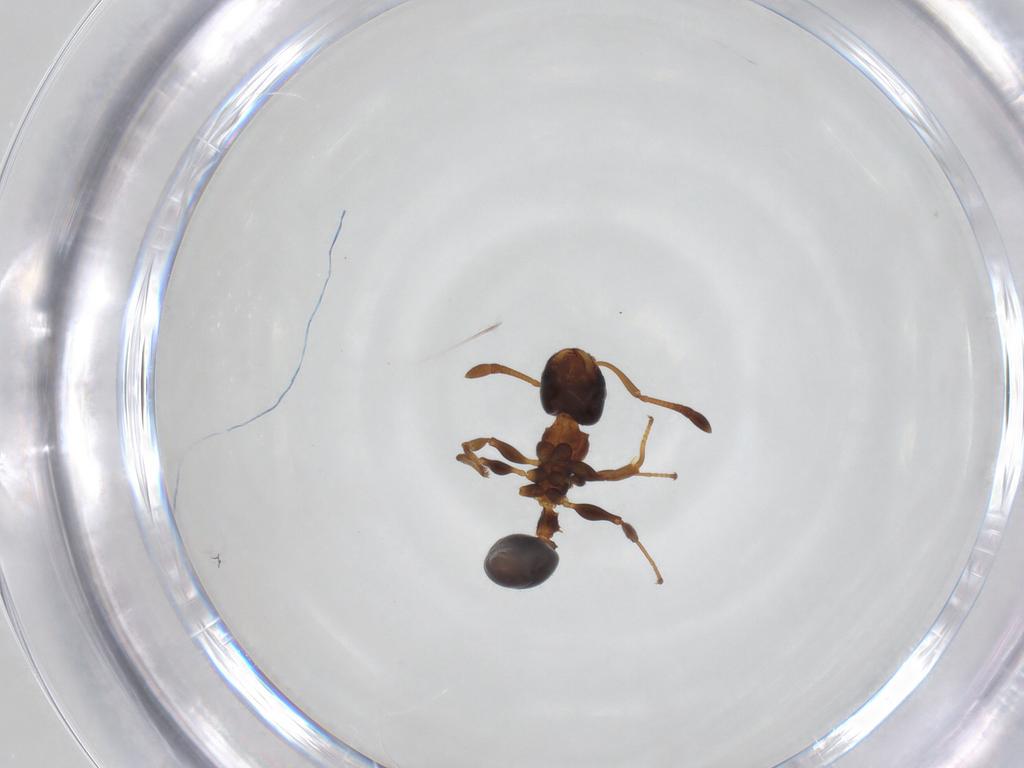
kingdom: Animalia
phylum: Arthropoda
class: Insecta
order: Hymenoptera
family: Formicidae
